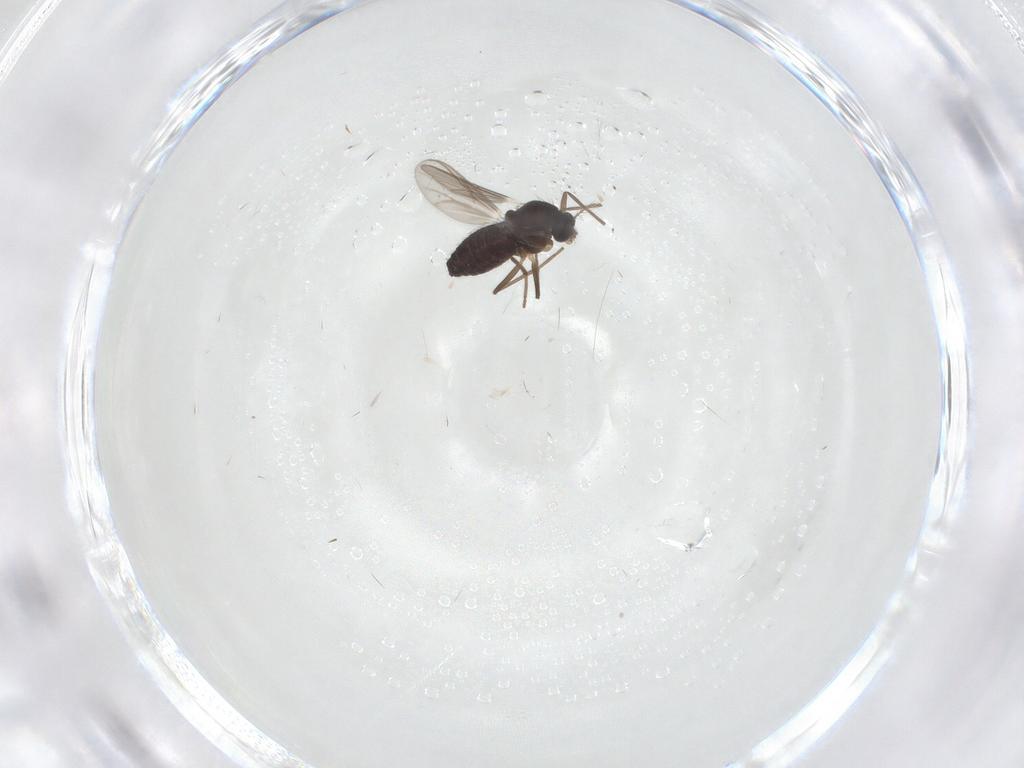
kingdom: Animalia
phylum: Arthropoda
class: Insecta
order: Diptera
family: Chironomidae
